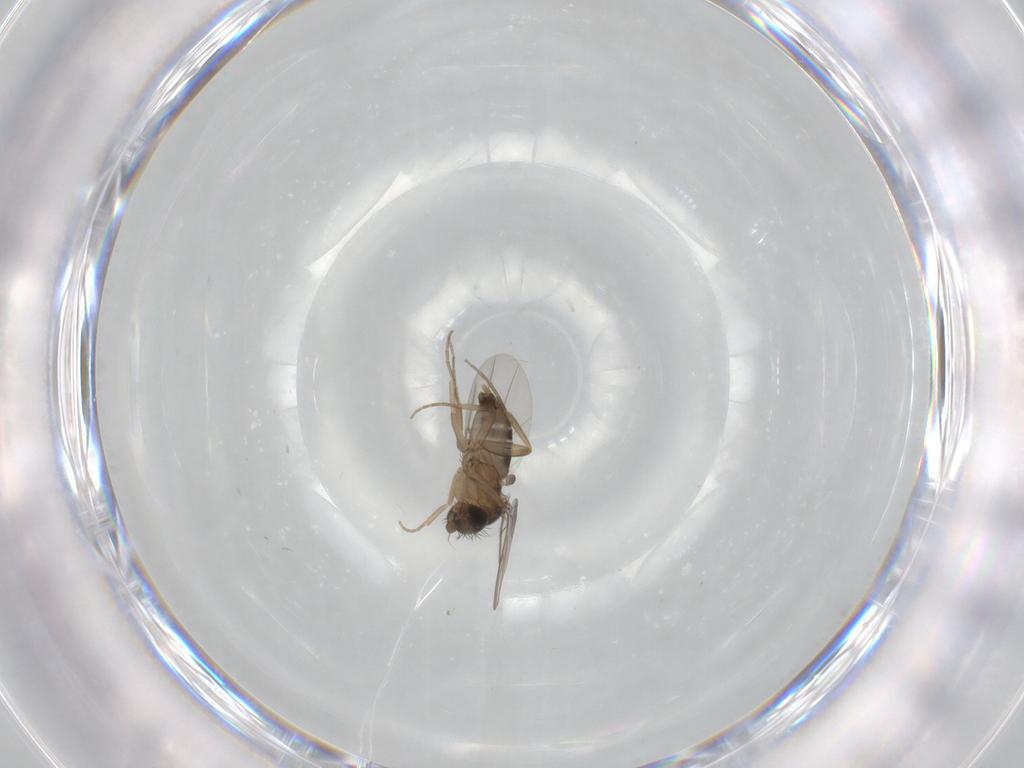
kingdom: Animalia
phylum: Arthropoda
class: Insecta
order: Diptera
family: Phoridae
